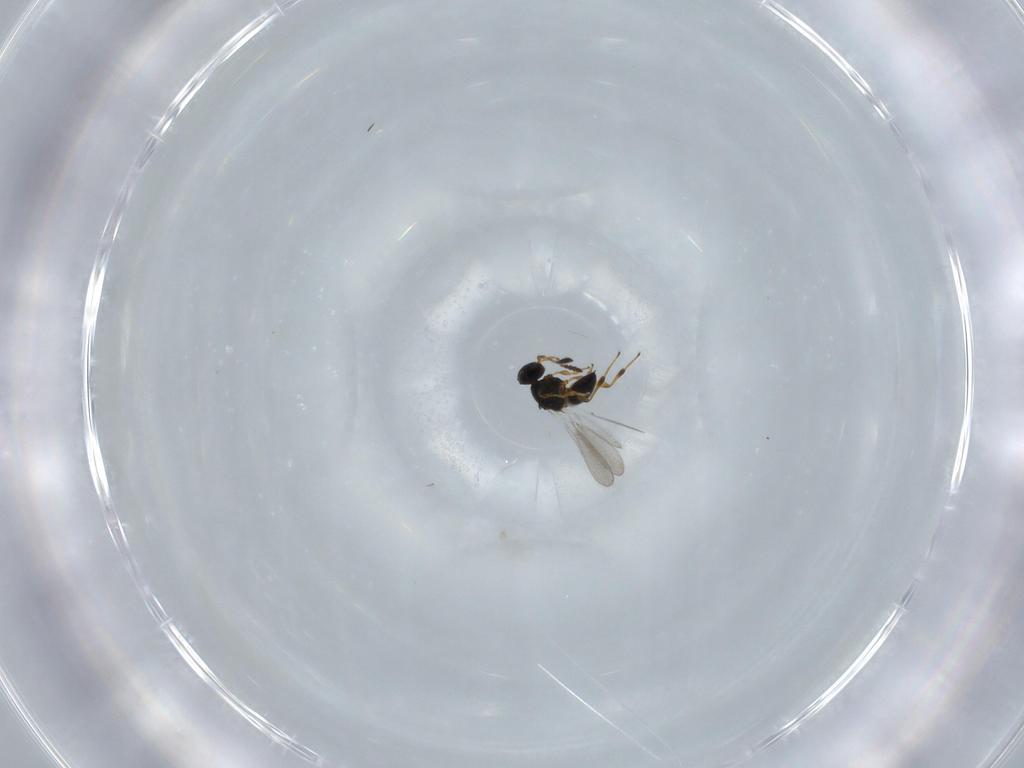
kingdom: Animalia
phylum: Arthropoda
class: Insecta
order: Hymenoptera
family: Platygastridae
